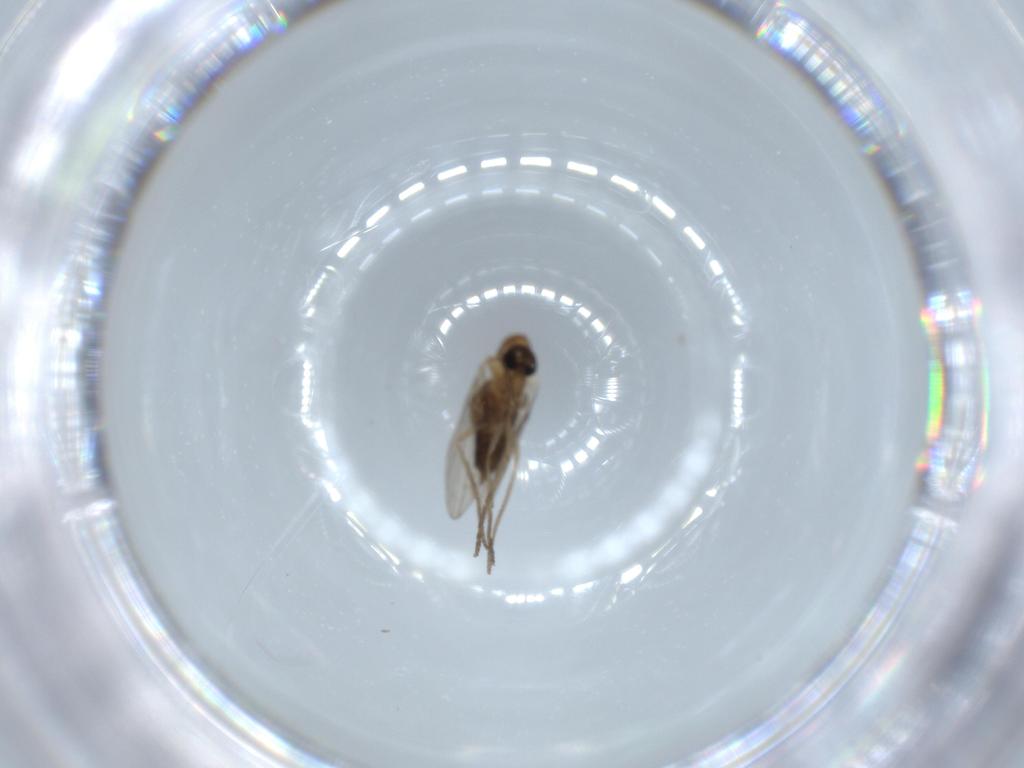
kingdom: Animalia
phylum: Arthropoda
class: Insecta
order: Diptera
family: Psychodidae
